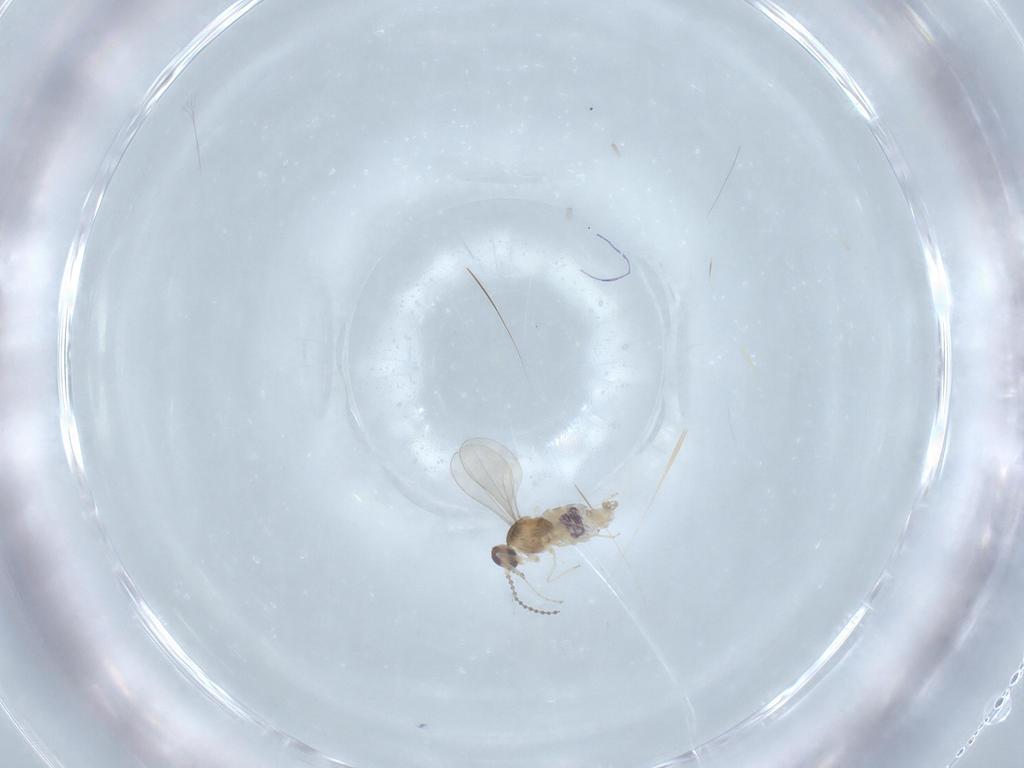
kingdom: Animalia
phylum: Arthropoda
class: Insecta
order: Diptera
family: Cecidomyiidae
